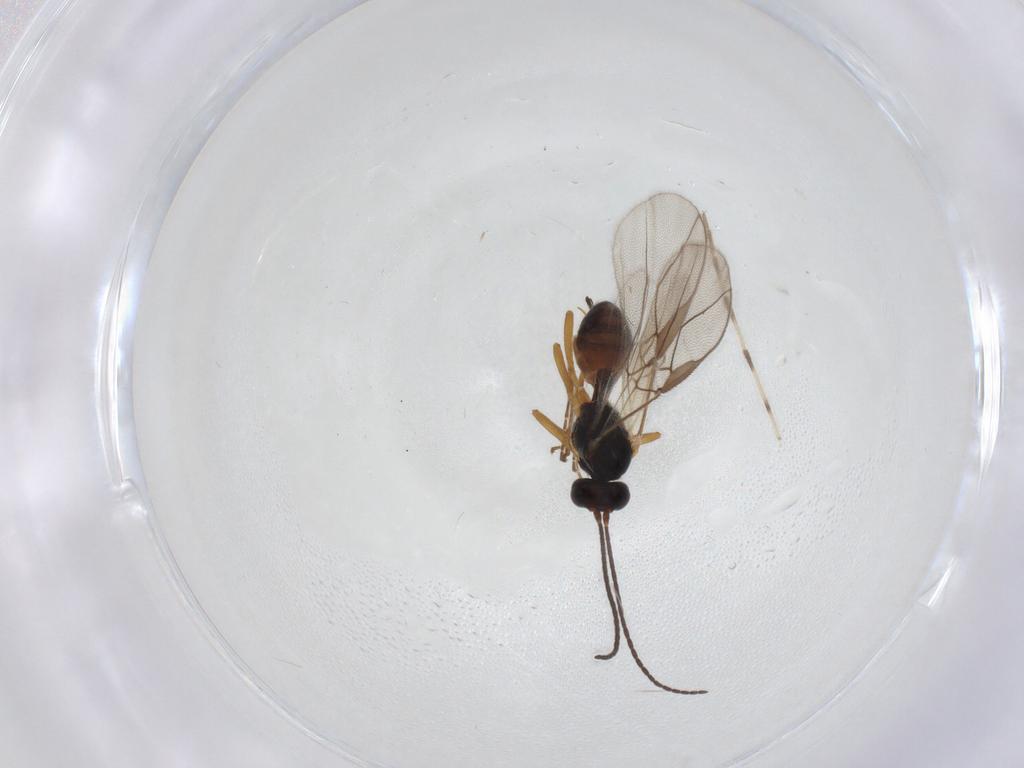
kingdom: Animalia
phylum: Arthropoda
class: Insecta
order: Hymenoptera
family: Braconidae
